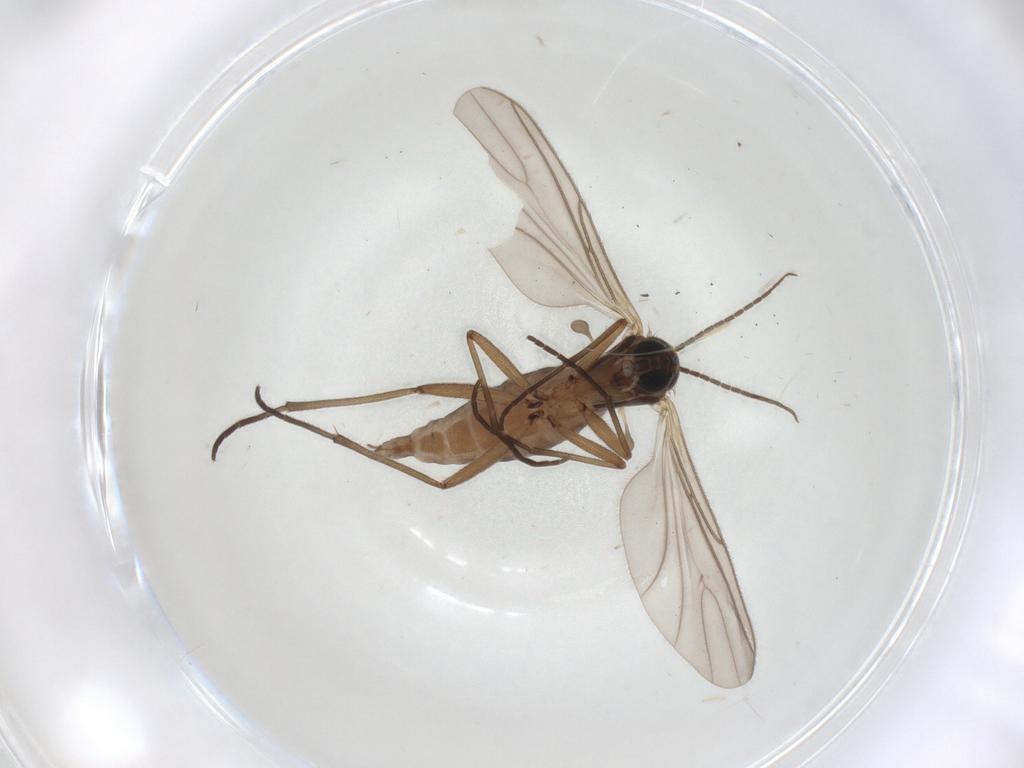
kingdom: Animalia
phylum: Arthropoda
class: Insecta
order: Diptera
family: Sciaridae
